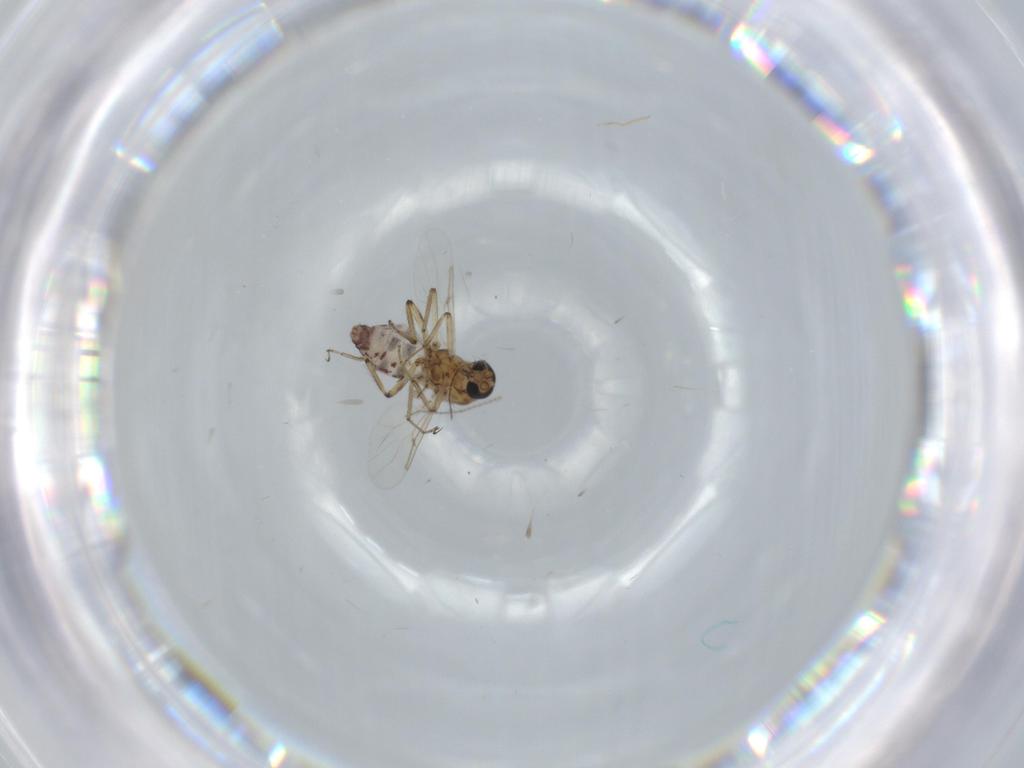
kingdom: Animalia
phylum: Arthropoda
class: Insecta
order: Diptera
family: Ceratopogonidae
